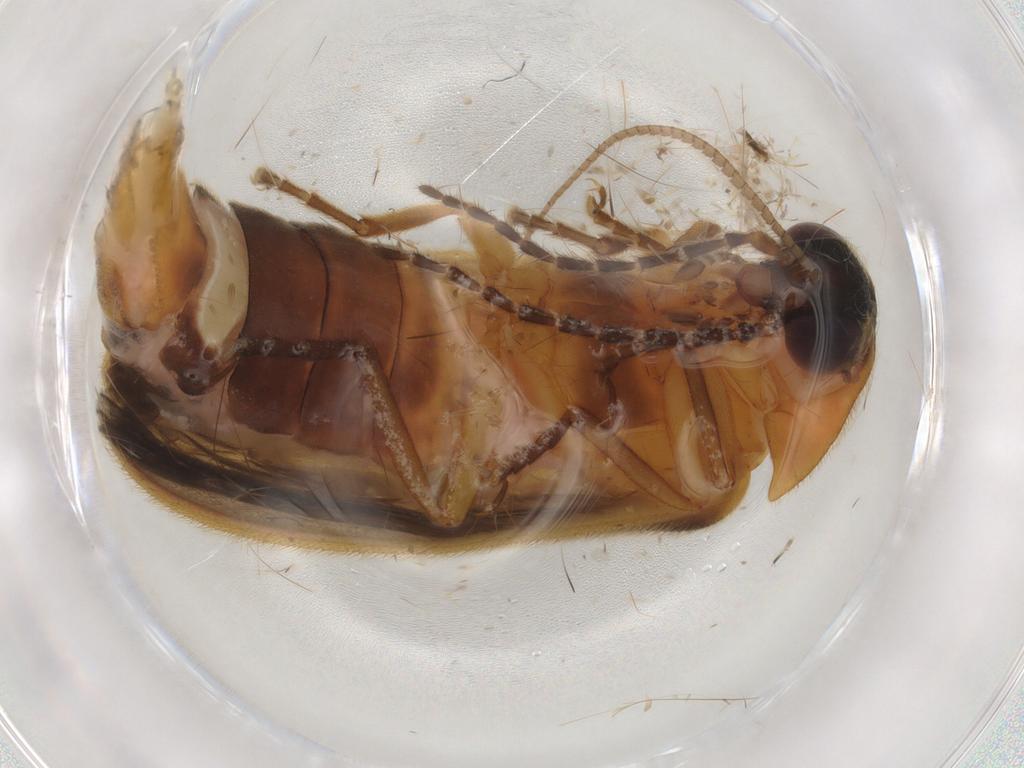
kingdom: Animalia
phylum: Arthropoda
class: Insecta
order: Coleoptera
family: Lampyridae
